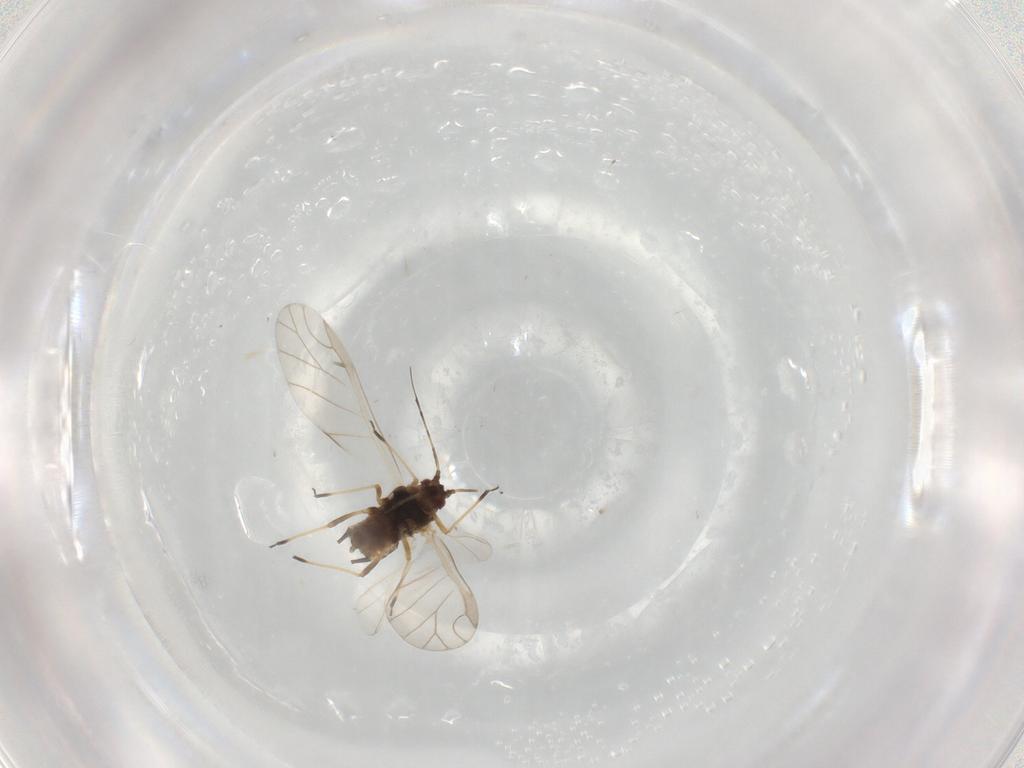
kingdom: Animalia
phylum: Arthropoda
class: Insecta
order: Hemiptera
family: Aphididae
